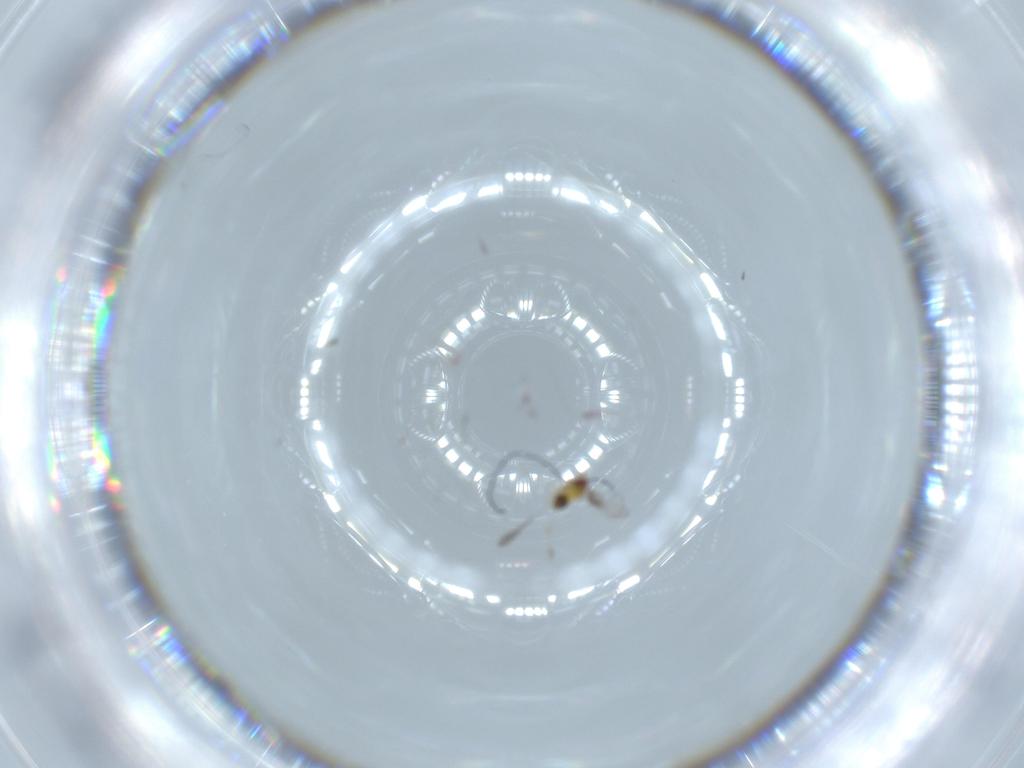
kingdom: Animalia
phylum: Arthropoda
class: Insecta
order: Hymenoptera
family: Trichogrammatidae
